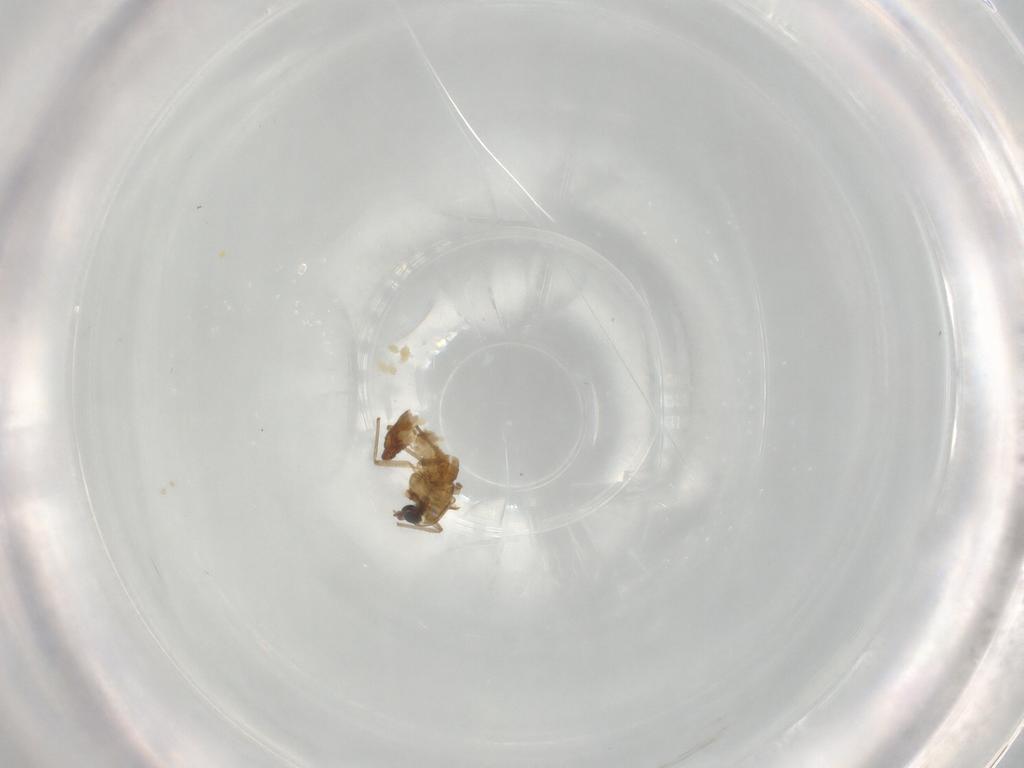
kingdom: Animalia
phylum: Arthropoda
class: Insecta
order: Diptera
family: Chironomidae
